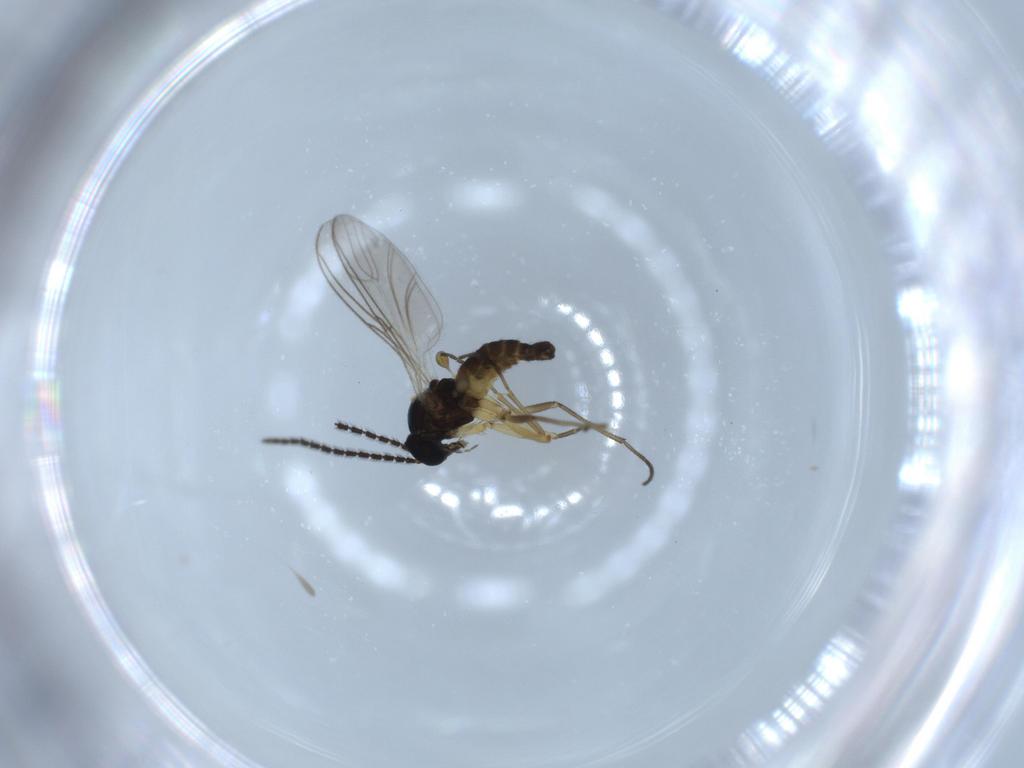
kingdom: Animalia
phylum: Arthropoda
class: Insecta
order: Diptera
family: Sciaridae
